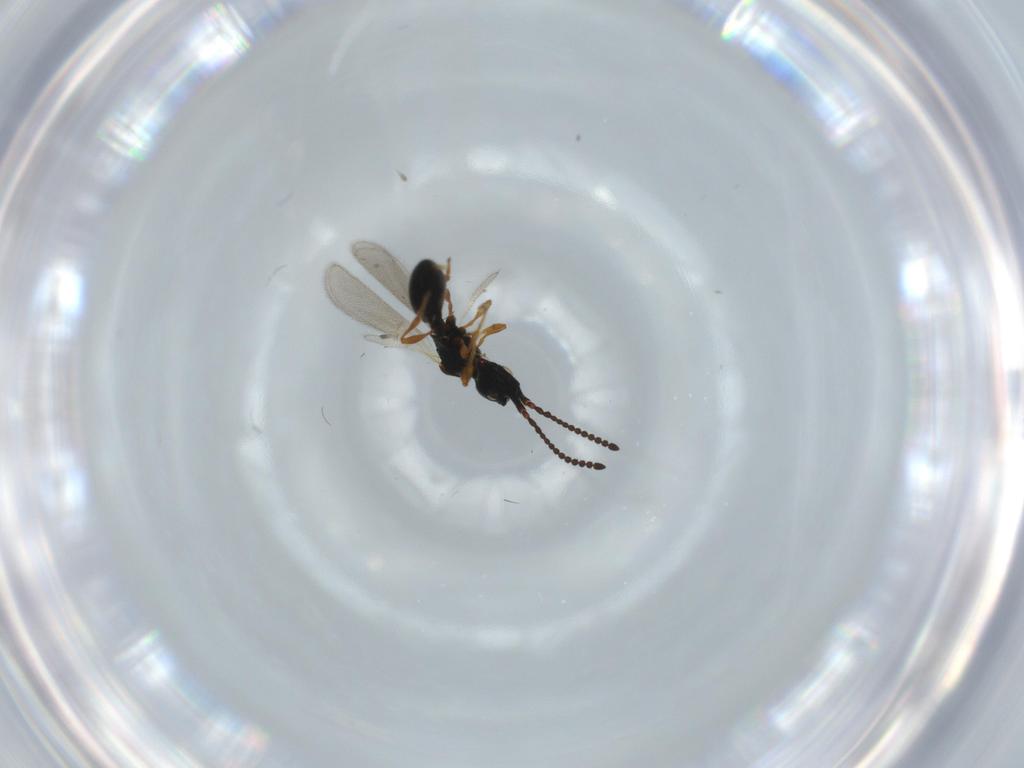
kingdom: Animalia
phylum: Arthropoda
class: Insecta
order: Hymenoptera
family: Diapriidae
